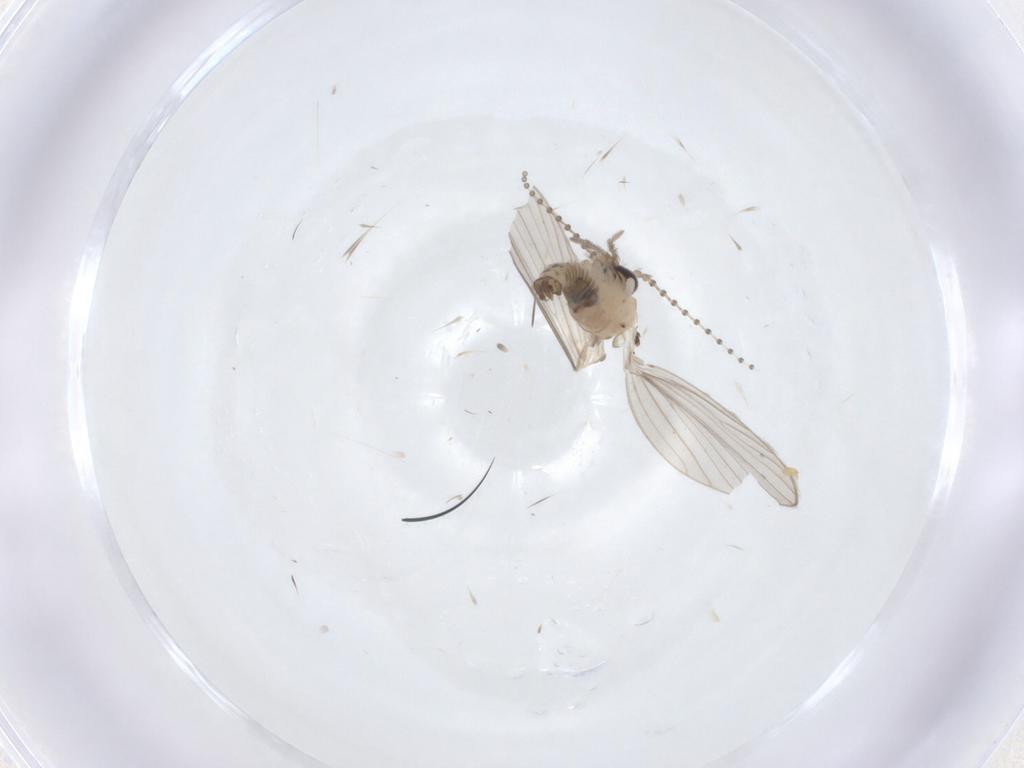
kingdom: Animalia
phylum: Arthropoda
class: Insecta
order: Diptera
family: Psychodidae
